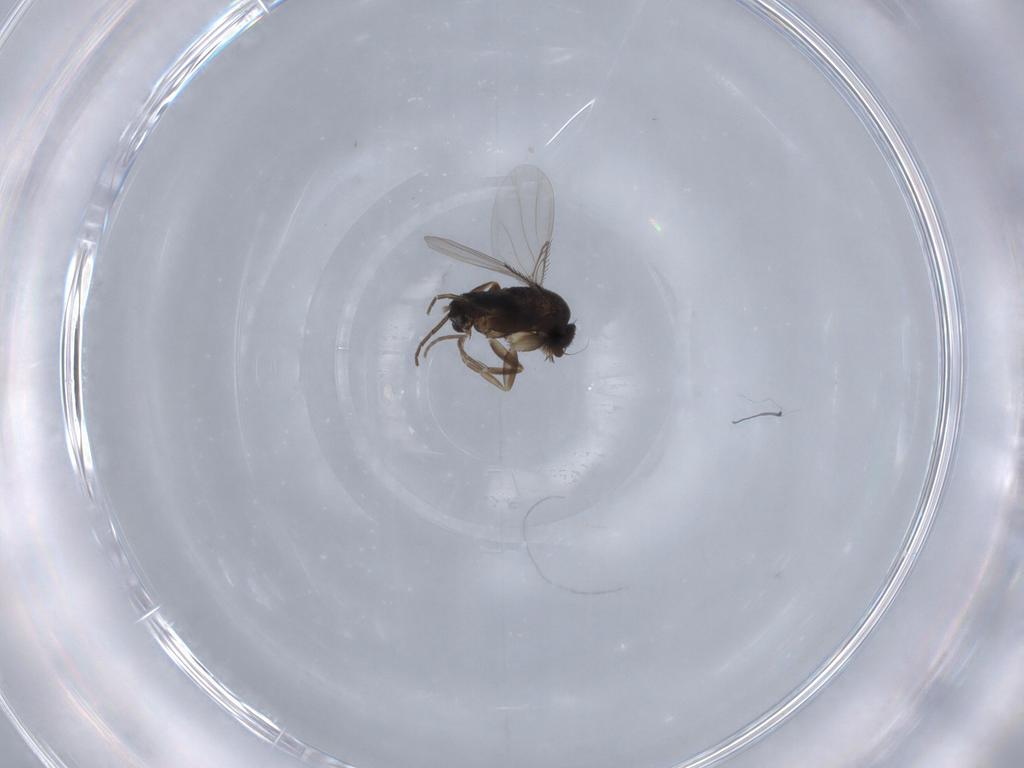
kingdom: Animalia
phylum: Arthropoda
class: Insecta
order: Diptera
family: Phoridae
